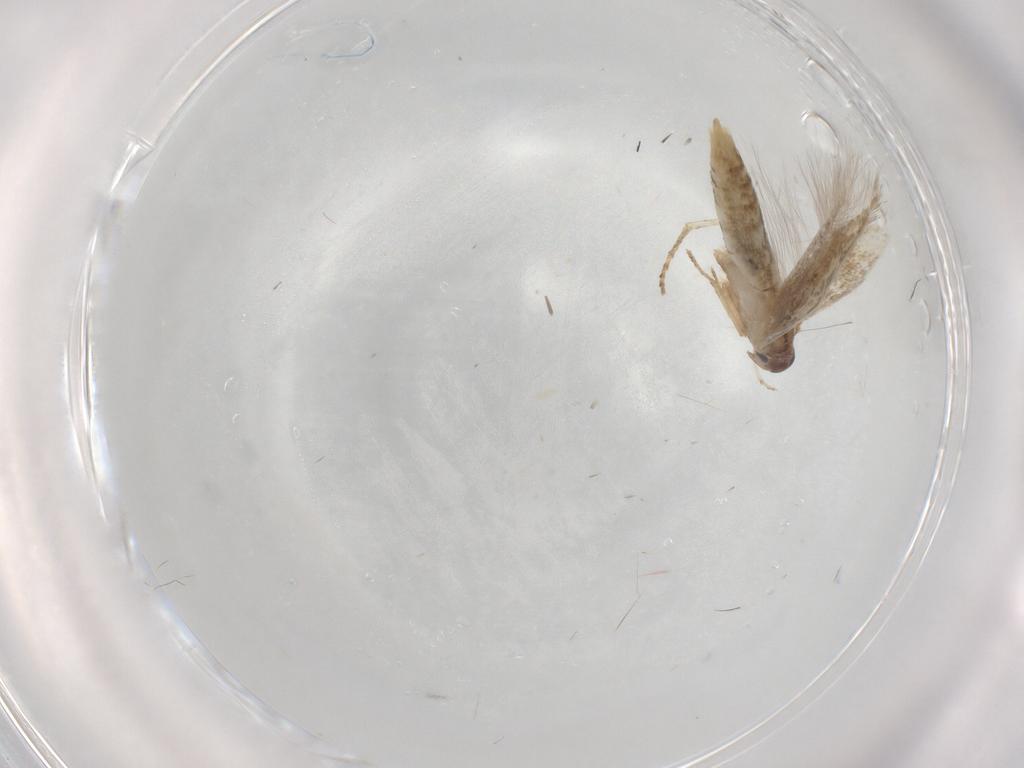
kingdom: Animalia
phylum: Arthropoda
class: Insecta
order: Lepidoptera
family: Elachistidae
